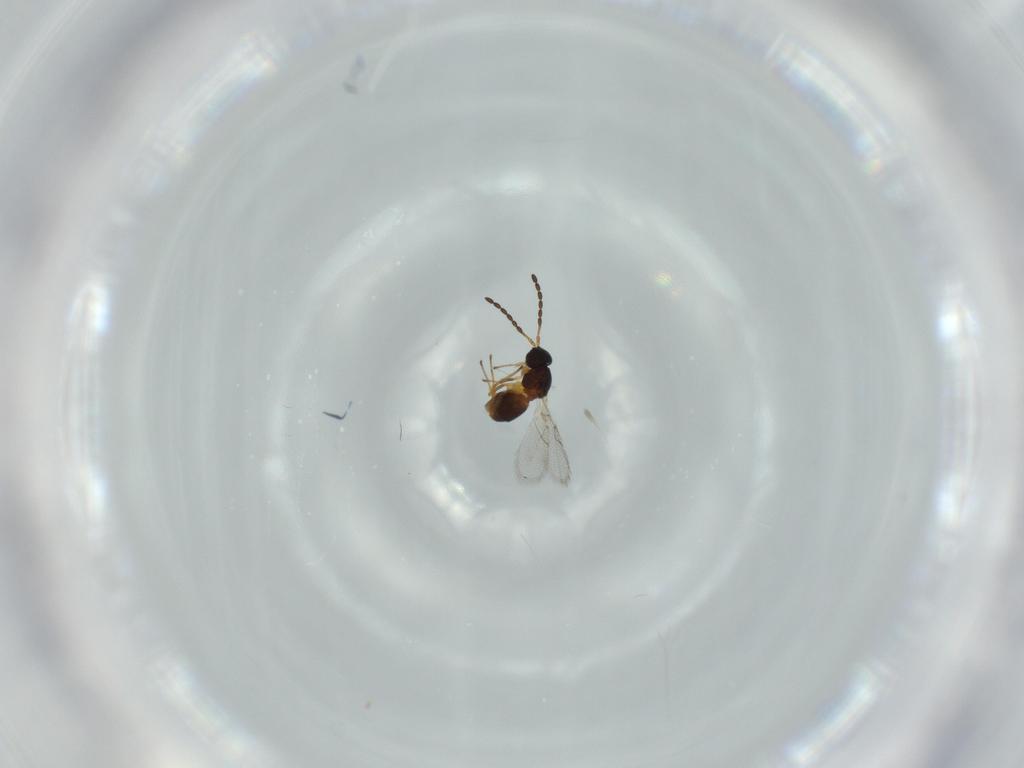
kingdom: Animalia
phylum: Arthropoda
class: Insecta
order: Hymenoptera
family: Figitidae
